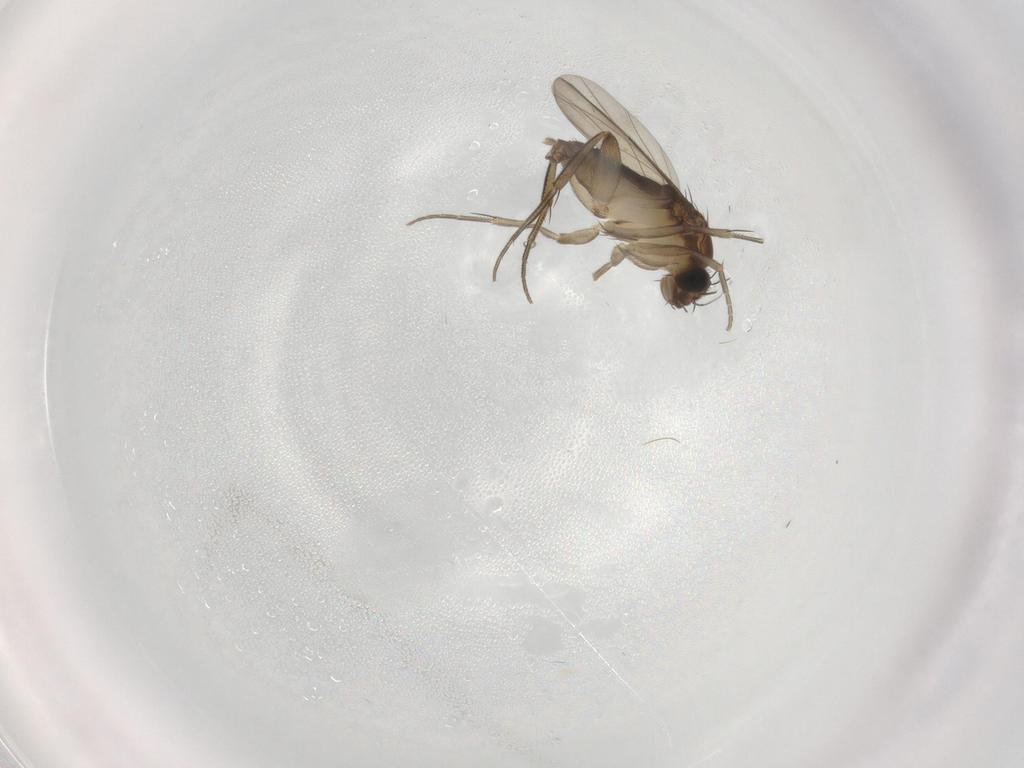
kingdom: Animalia
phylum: Arthropoda
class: Insecta
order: Diptera
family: Phoridae
